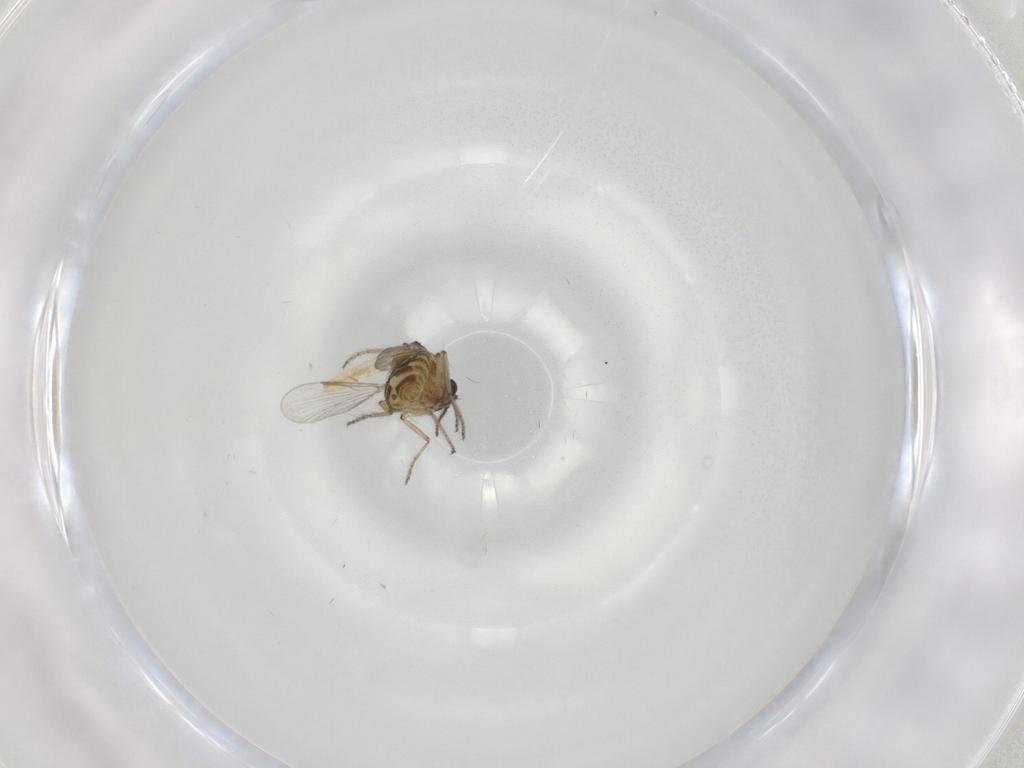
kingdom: Animalia
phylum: Arthropoda
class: Insecta
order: Diptera
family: Ceratopogonidae
